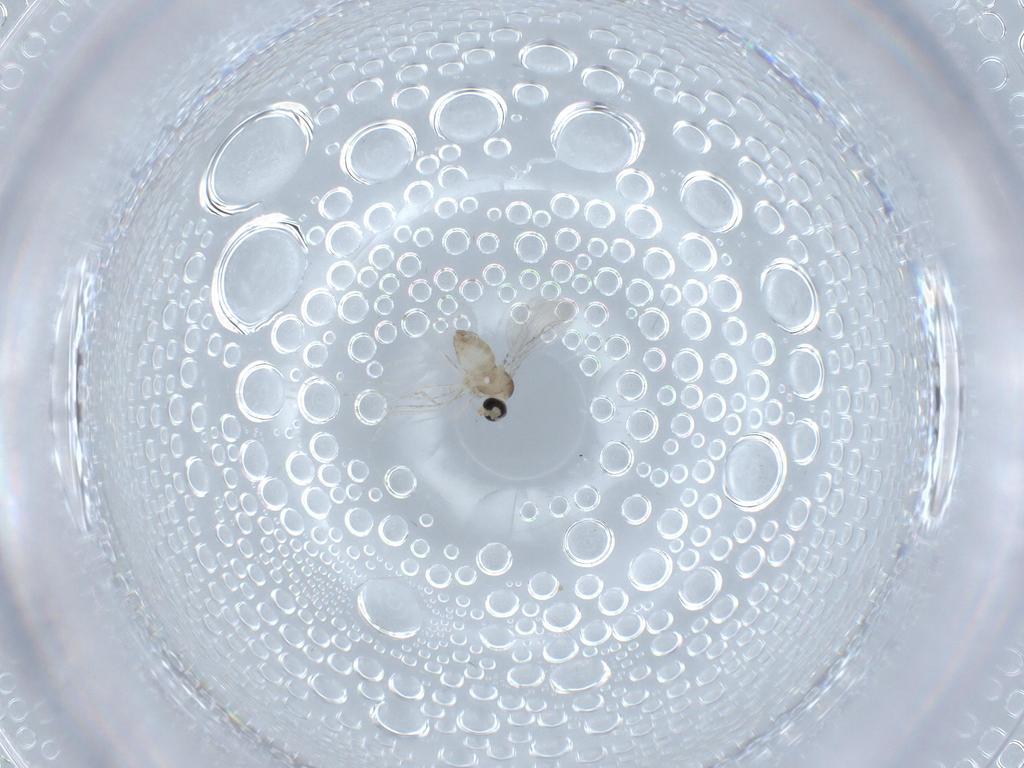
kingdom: Animalia
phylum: Arthropoda
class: Insecta
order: Diptera
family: Cecidomyiidae
